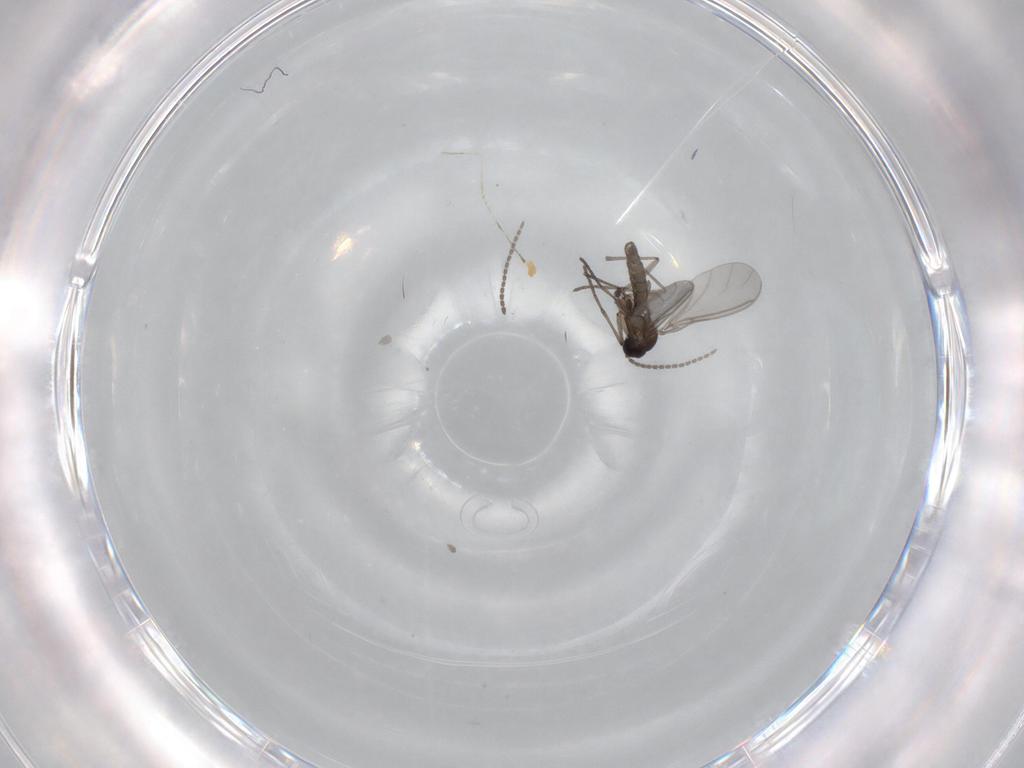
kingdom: Animalia
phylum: Arthropoda
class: Insecta
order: Diptera
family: Sciaridae
